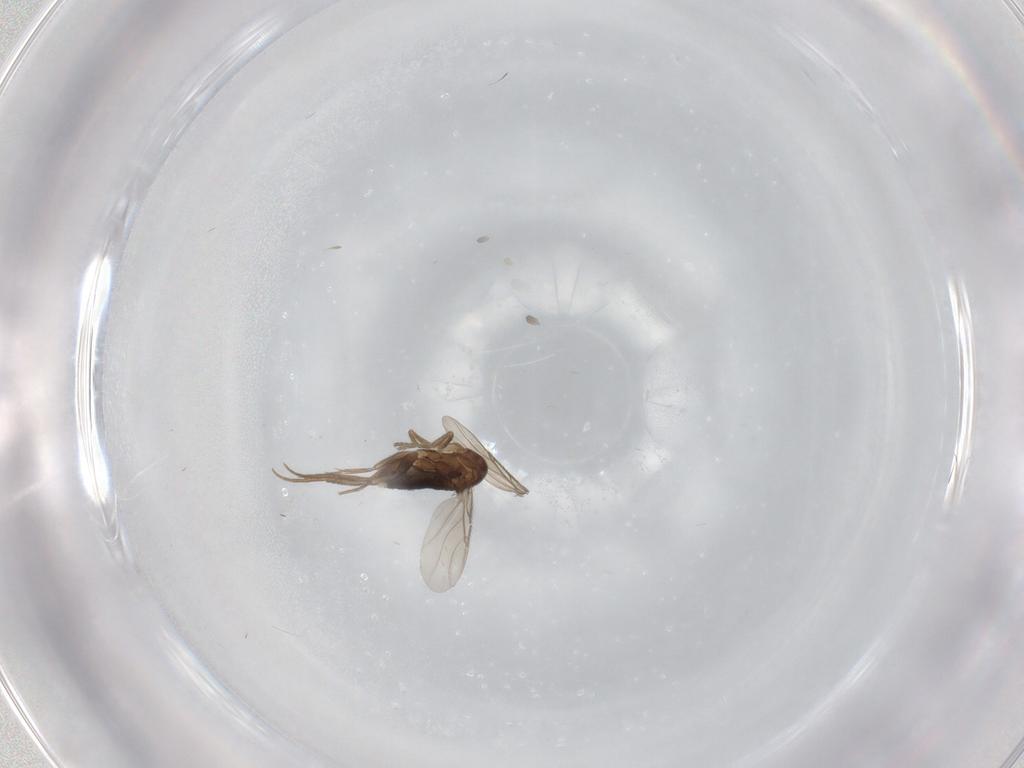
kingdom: Animalia
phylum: Arthropoda
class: Insecta
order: Diptera
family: Phoridae
